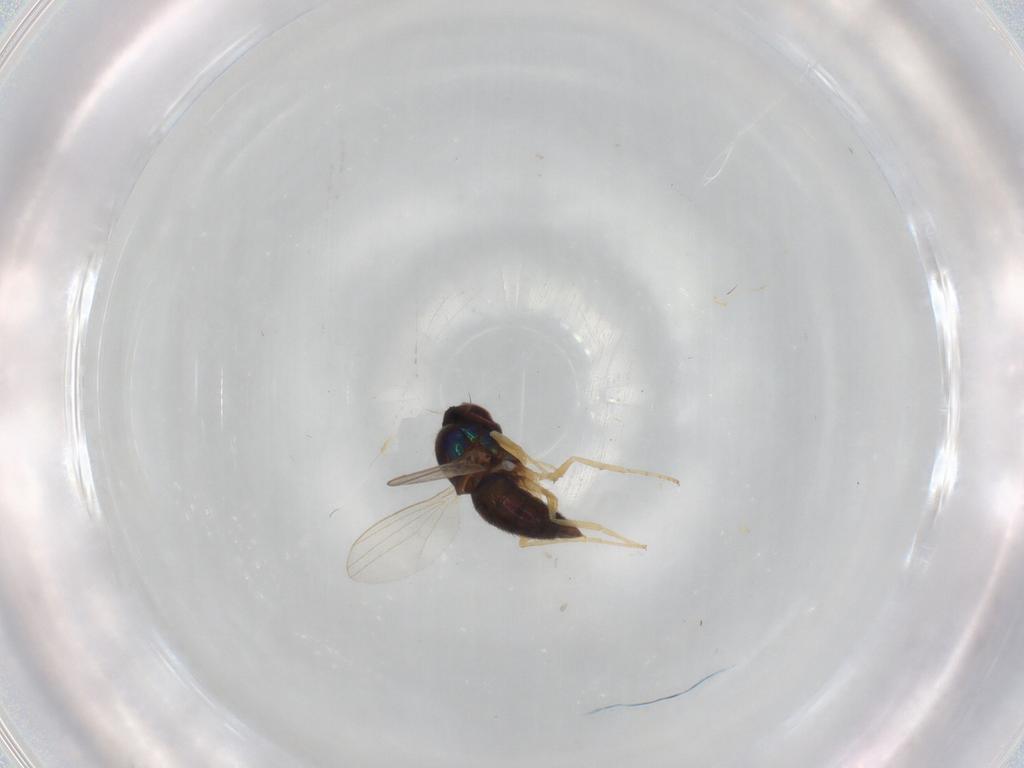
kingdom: Animalia
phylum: Arthropoda
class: Insecta
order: Diptera
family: Dolichopodidae
